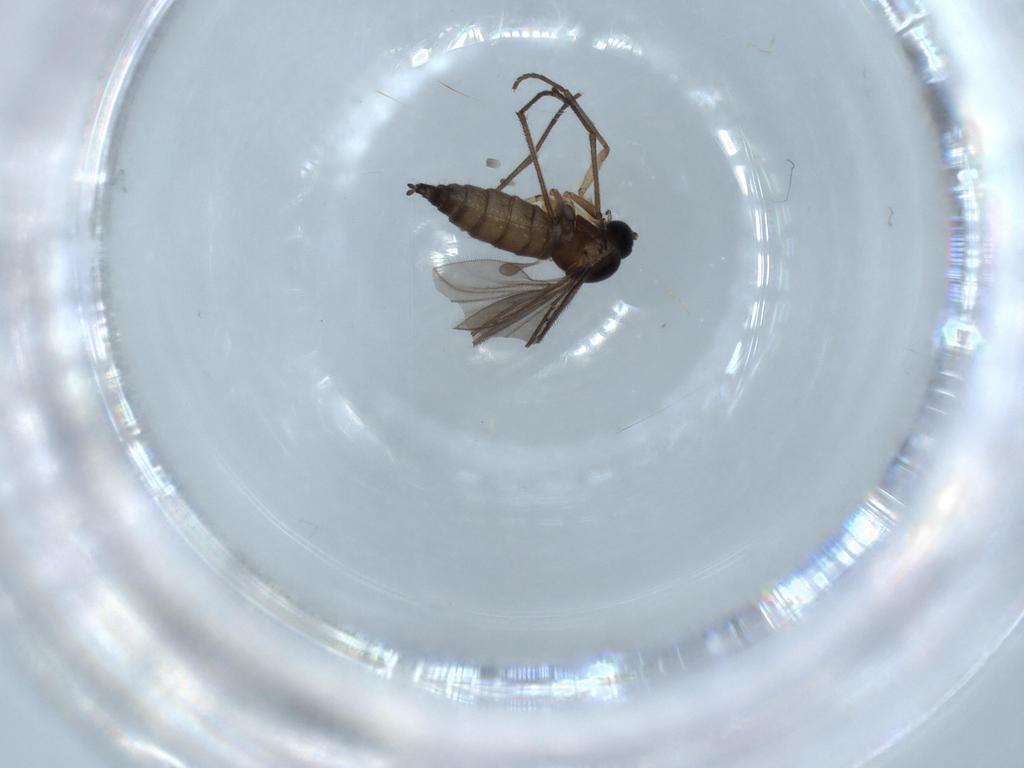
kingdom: Animalia
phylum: Arthropoda
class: Insecta
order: Diptera
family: Sciaridae
